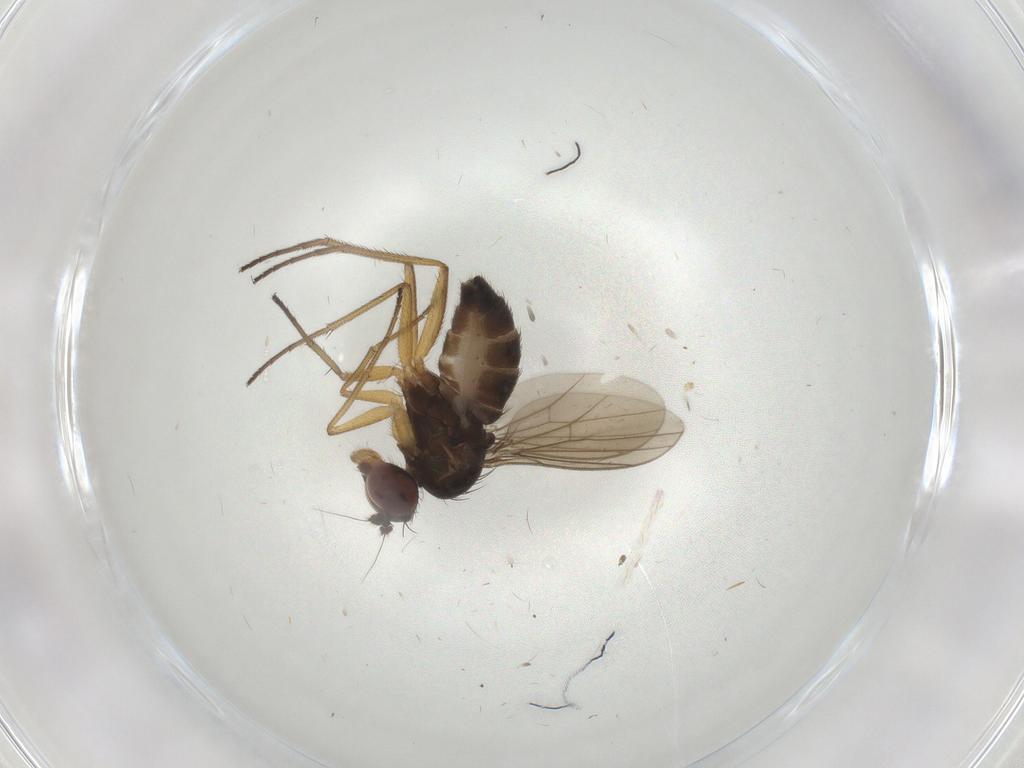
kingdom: Animalia
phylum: Arthropoda
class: Insecta
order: Diptera
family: Dolichopodidae
